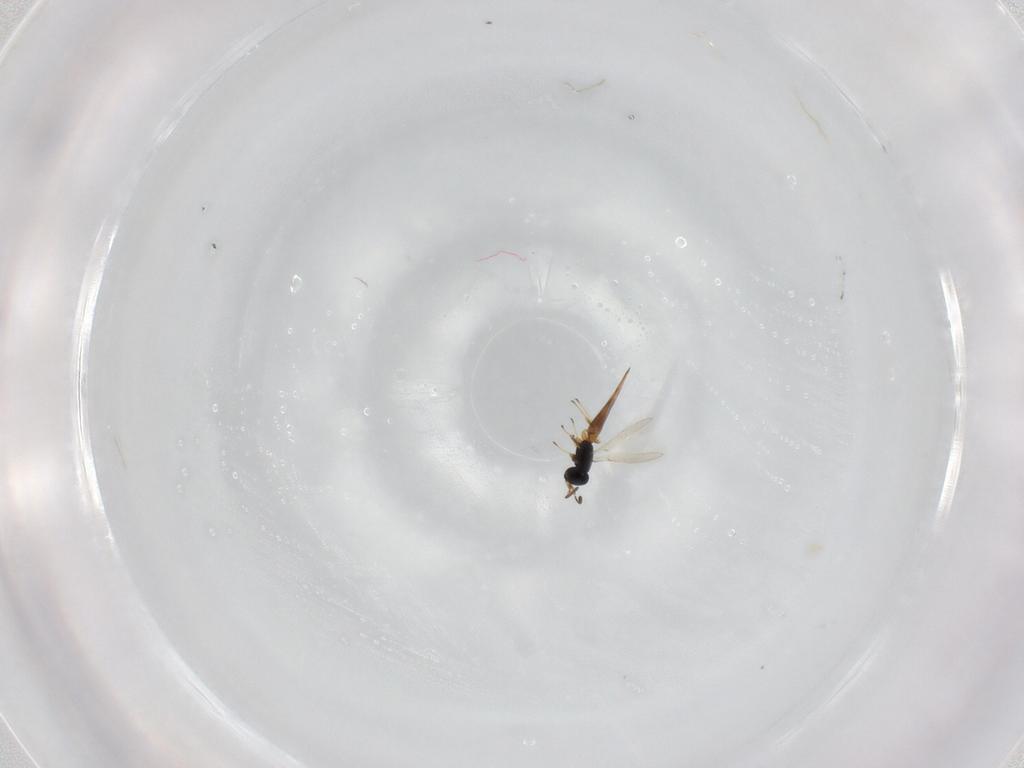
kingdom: Animalia
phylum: Arthropoda
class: Insecta
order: Hymenoptera
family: Scelionidae
